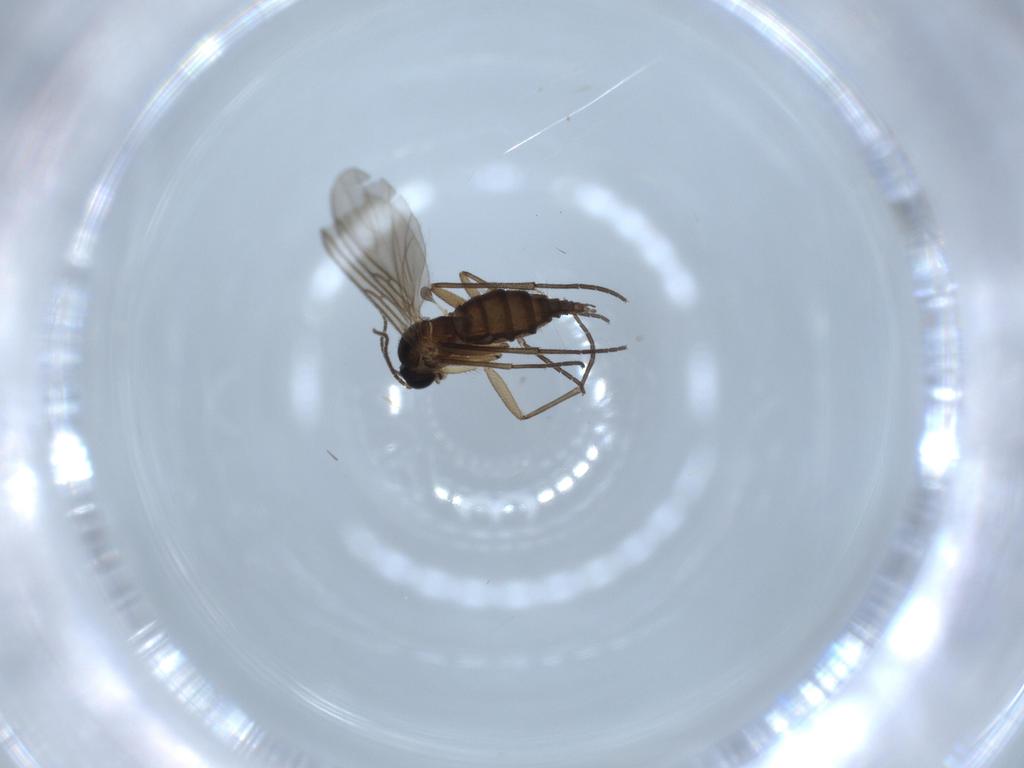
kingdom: Animalia
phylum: Arthropoda
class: Insecta
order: Diptera
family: Sciaridae
